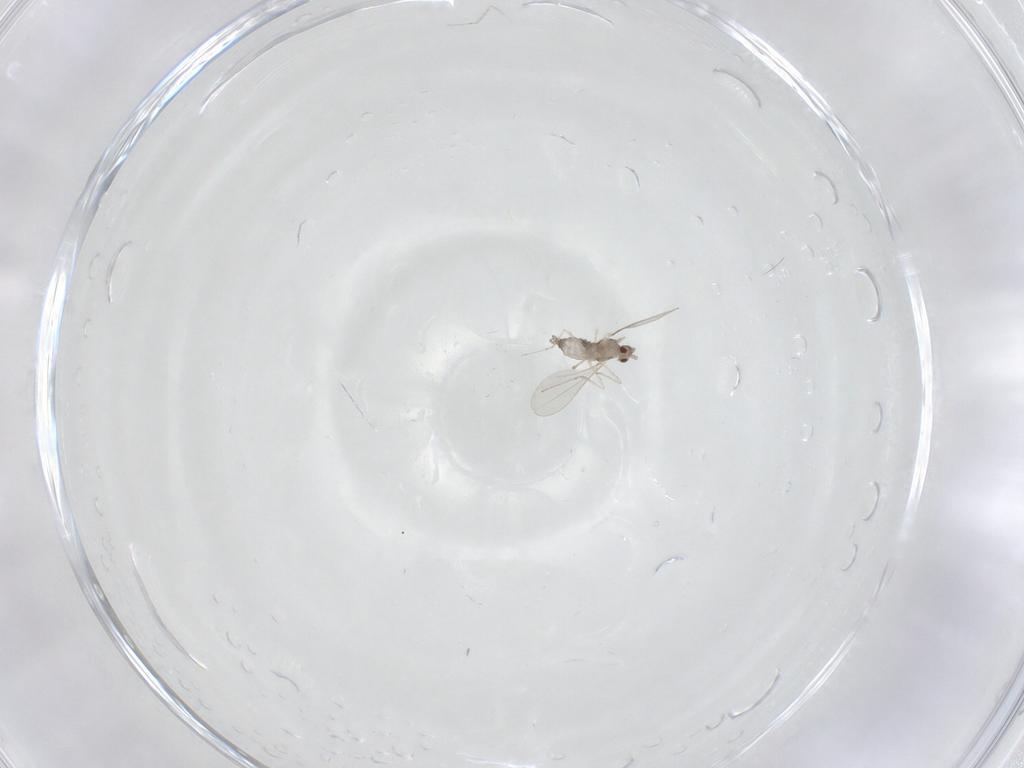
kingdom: Animalia
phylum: Arthropoda
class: Insecta
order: Diptera
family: Cecidomyiidae
